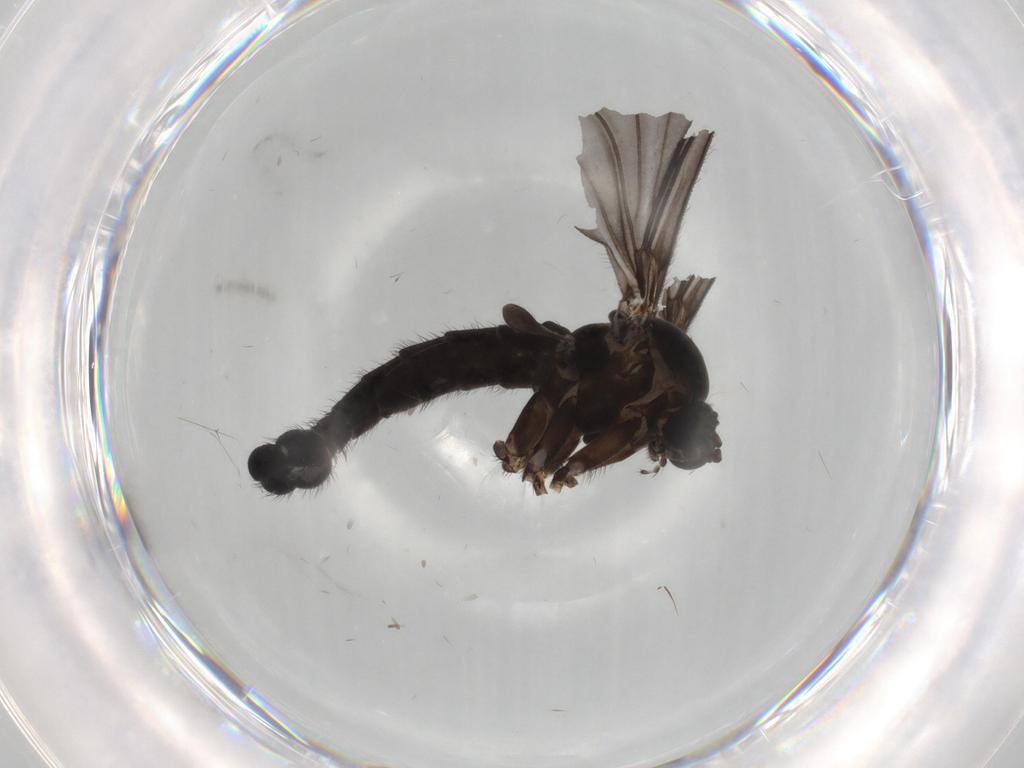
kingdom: Animalia
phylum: Arthropoda
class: Insecta
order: Diptera
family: Sciaridae
